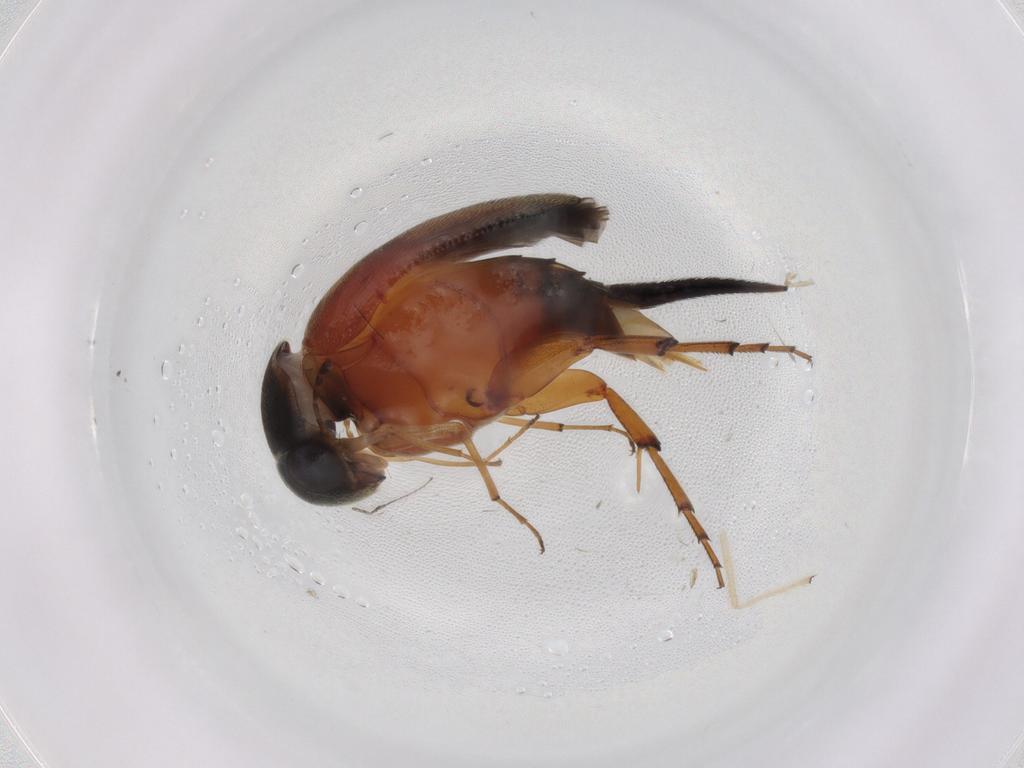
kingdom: Animalia
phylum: Arthropoda
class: Insecta
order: Coleoptera
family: Mordellidae
